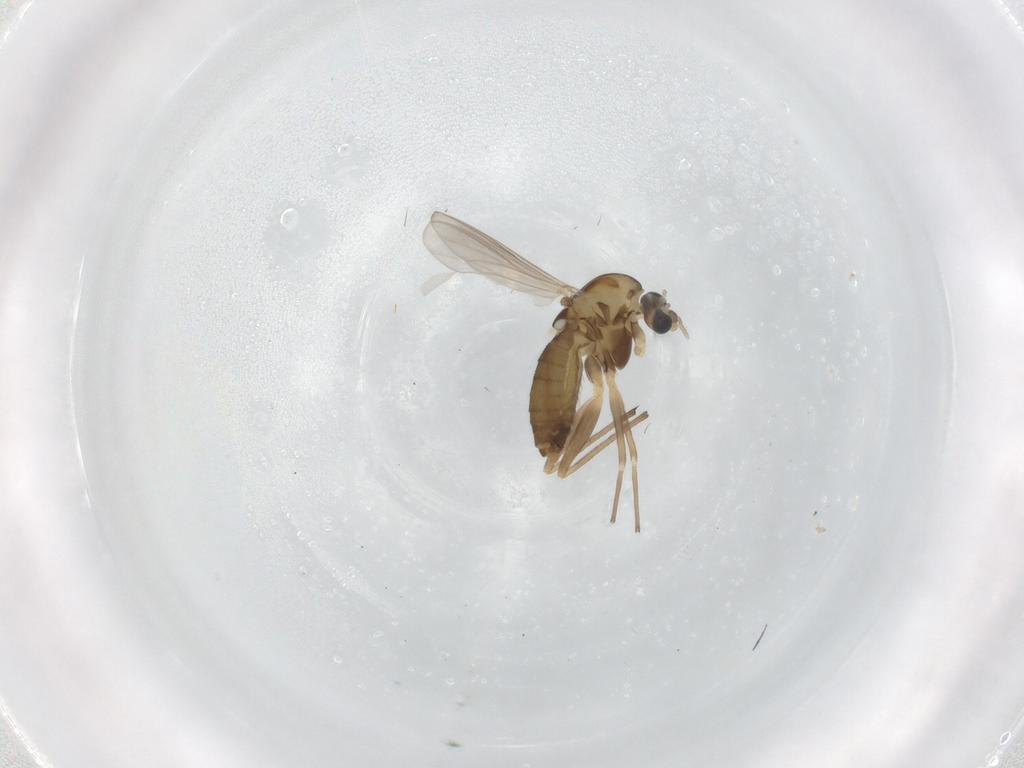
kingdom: Animalia
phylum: Arthropoda
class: Insecta
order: Diptera
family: Chironomidae
